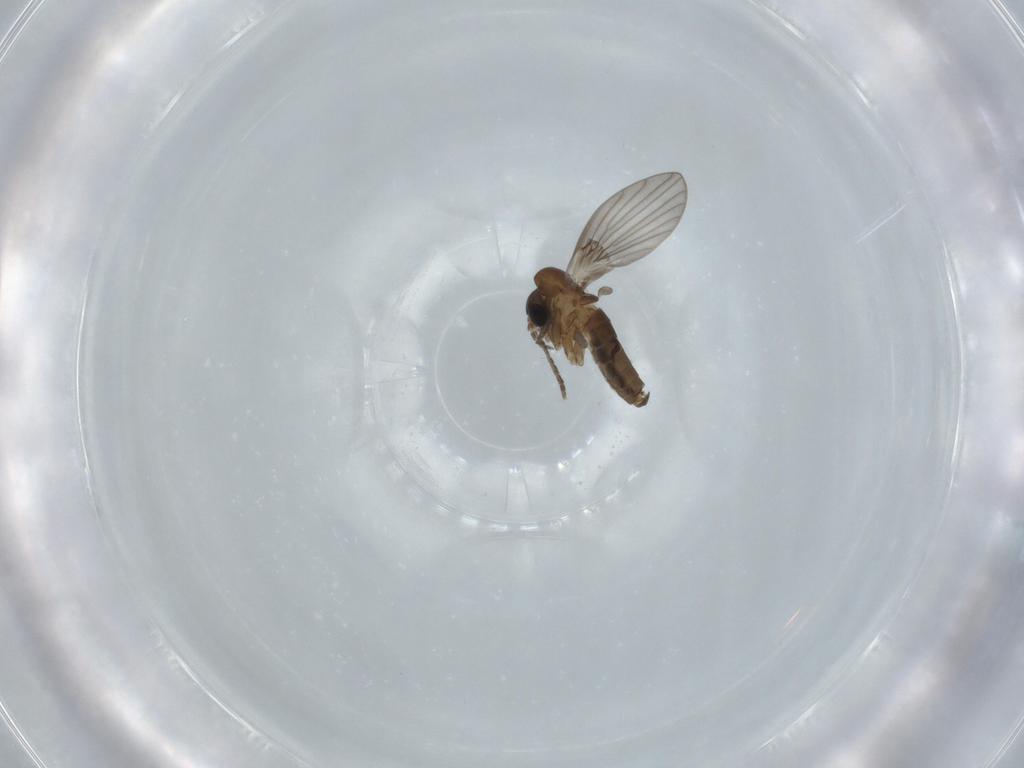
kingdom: Animalia
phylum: Arthropoda
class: Insecta
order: Diptera
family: Psychodidae
